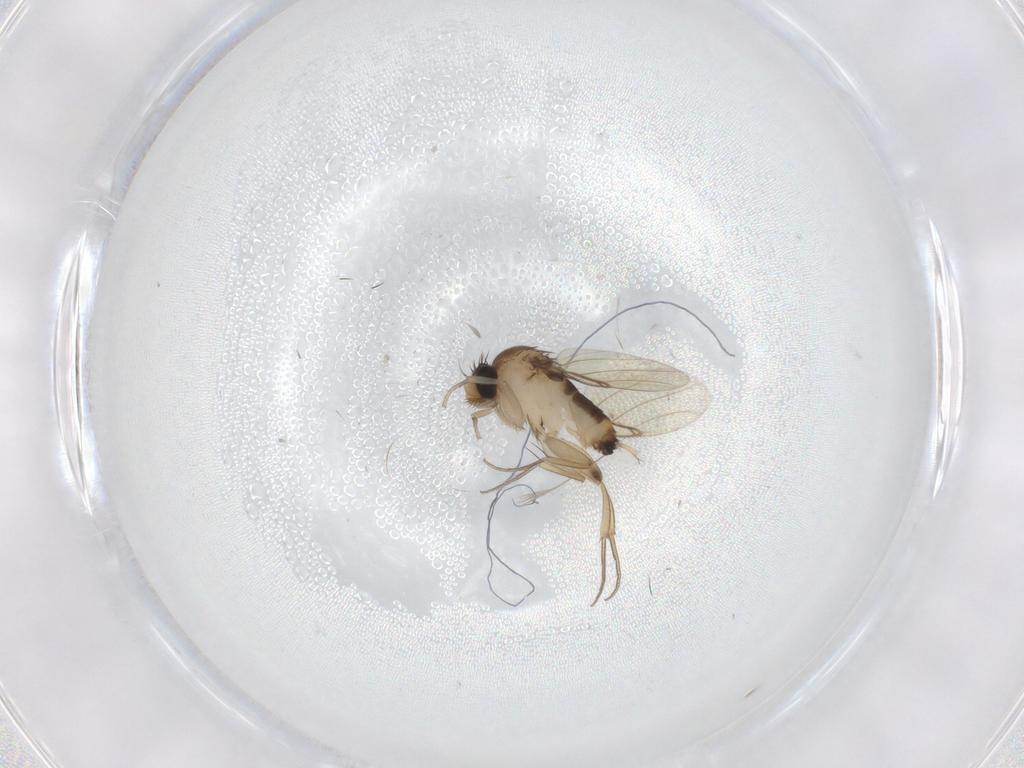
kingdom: Animalia
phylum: Arthropoda
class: Insecta
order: Diptera
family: Phoridae
